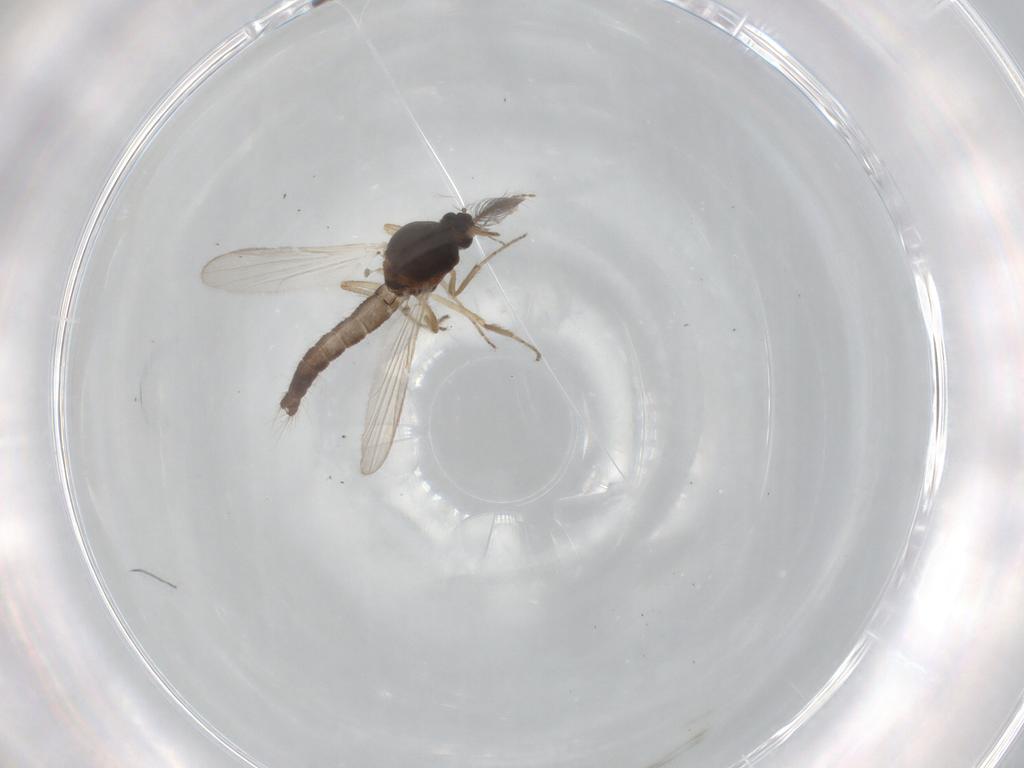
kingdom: Animalia
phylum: Arthropoda
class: Insecta
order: Diptera
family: Ceratopogonidae
